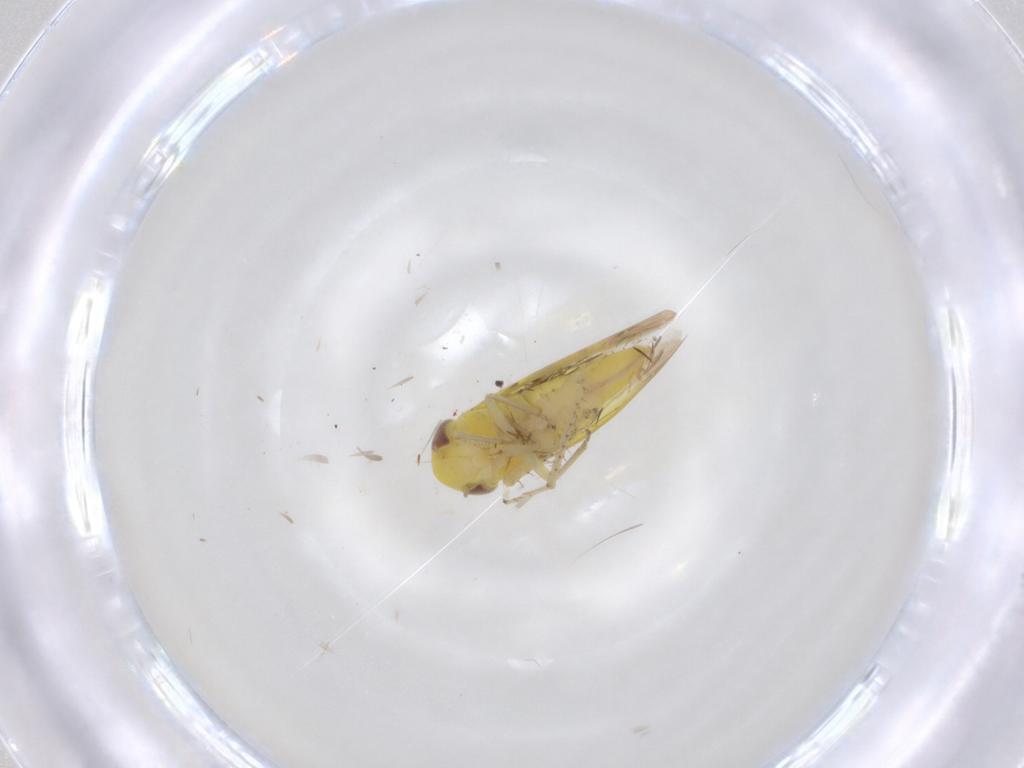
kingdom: Animalia
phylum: Arthropoda
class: Insecta
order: Hemiptera
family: Cicadellidae
